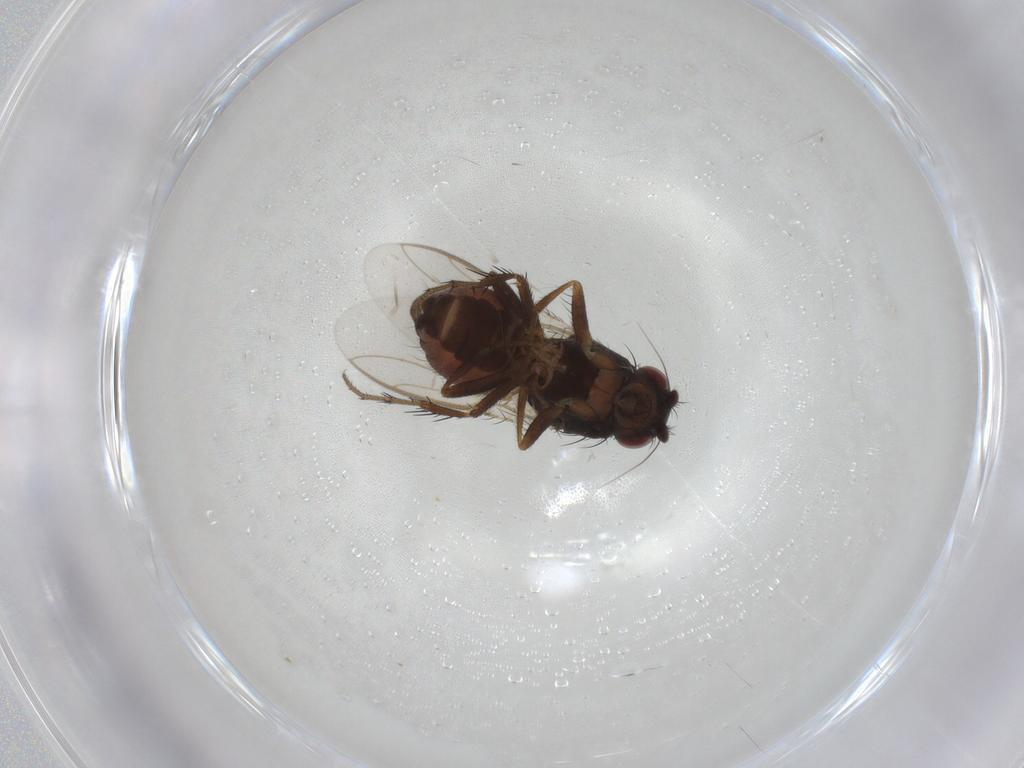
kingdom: Animalia
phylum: Arthropoda
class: Insecta
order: Diptera
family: Sphaeroceridae
